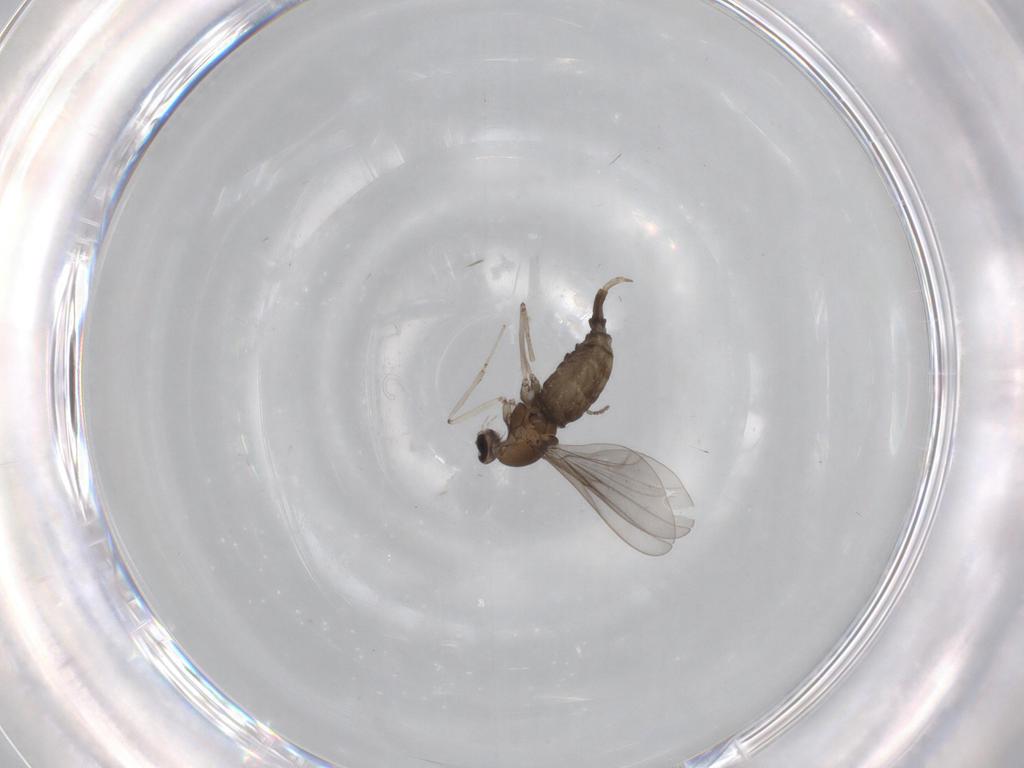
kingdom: Animalia
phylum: Arthropoda
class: Insecta
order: Diptera
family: Cecidomyiidae
